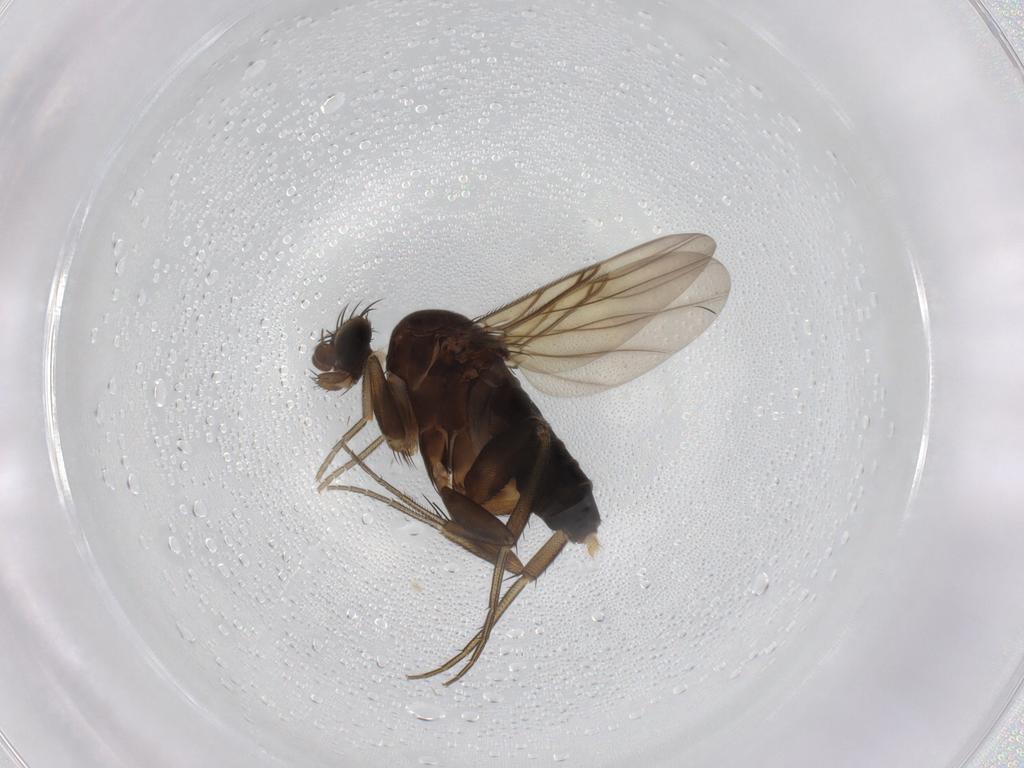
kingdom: Animalia
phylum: Arthropoda
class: Insecta
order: Diptera
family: Phoridae
